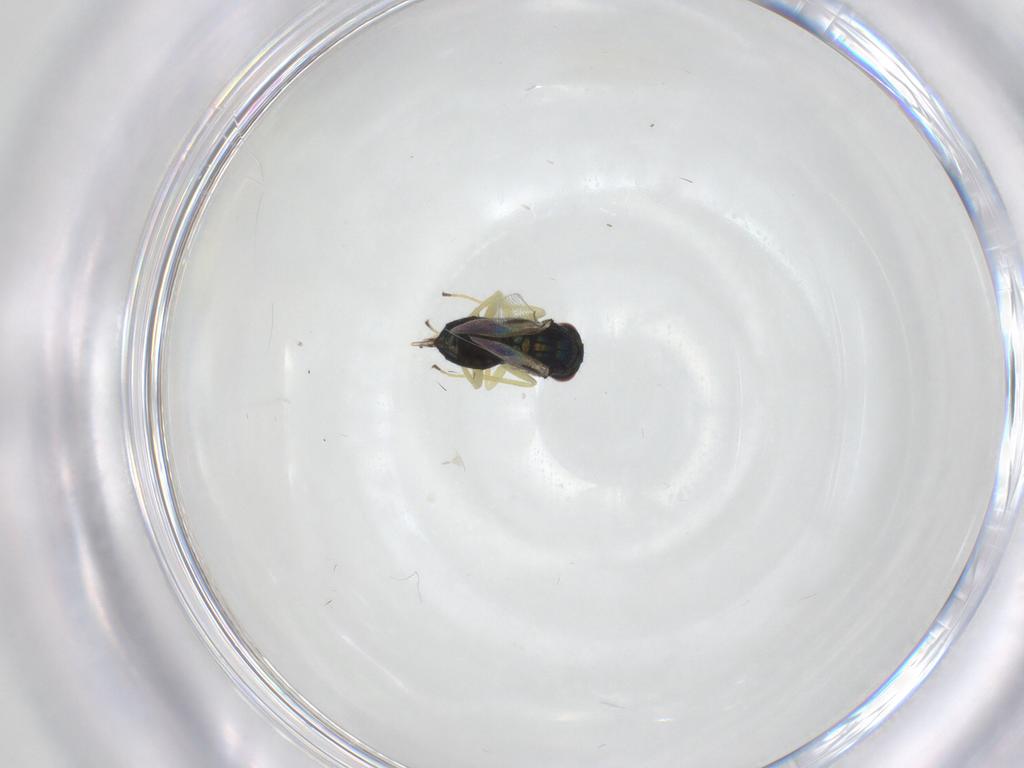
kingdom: Animalia
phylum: Arthropoda
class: Insecta
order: Hymenoptera
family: Eulophidae
